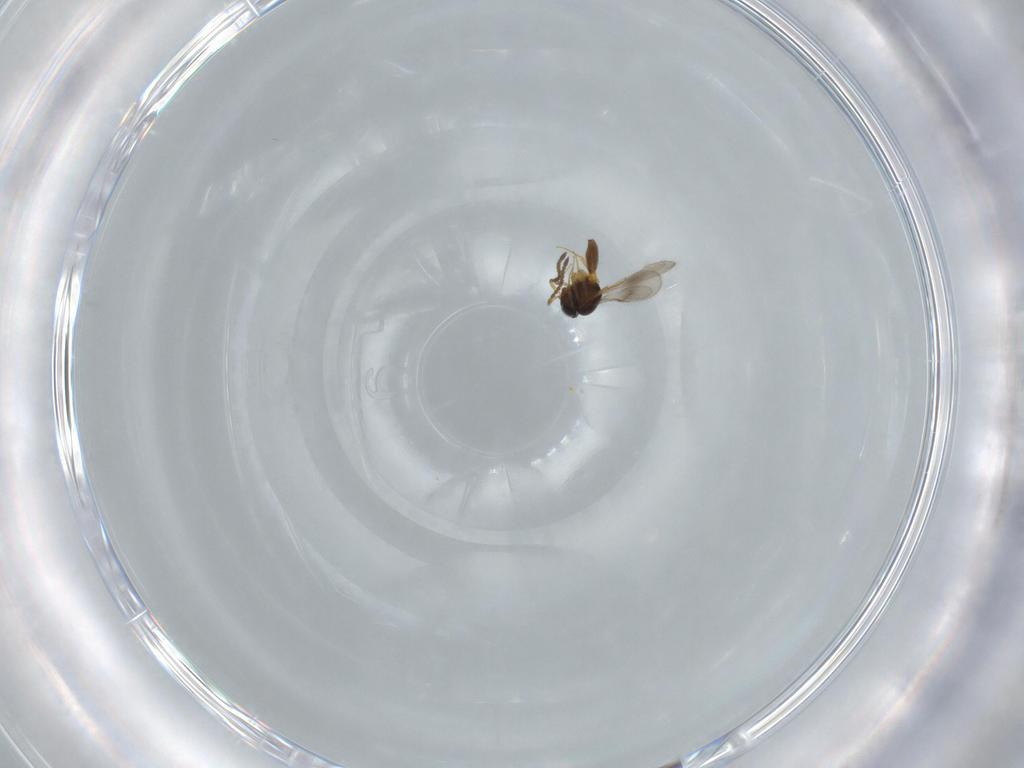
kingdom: Animalia
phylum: Arthropoda
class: Insecta
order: Hymenoptera
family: Scelionidae
